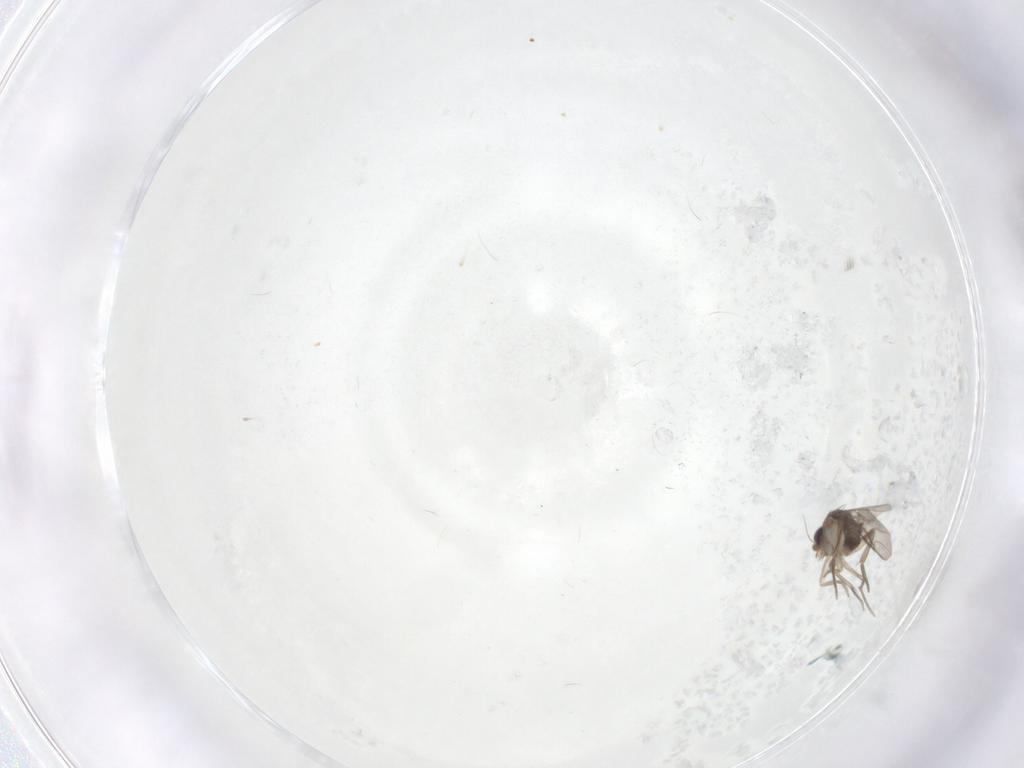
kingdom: Animalia
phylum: Arthropoda
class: Insecta
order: Diptera
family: Phoridae
